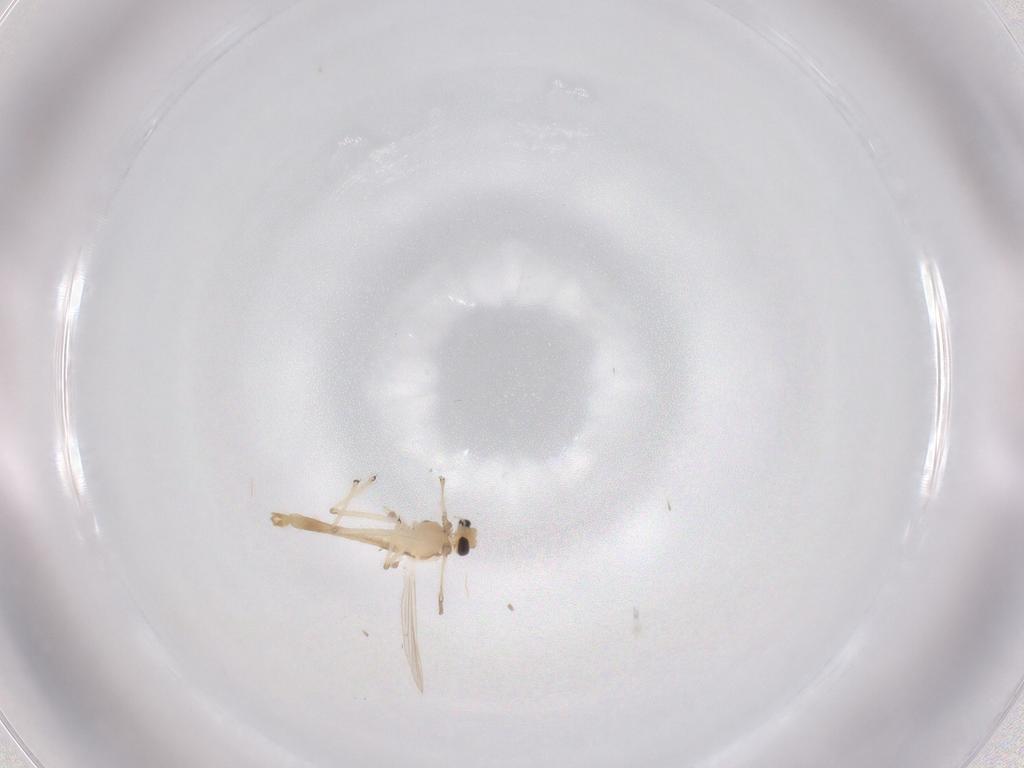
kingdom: Animalia
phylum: Arthropoda
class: Insecta
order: Diptera
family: Chironomidae
